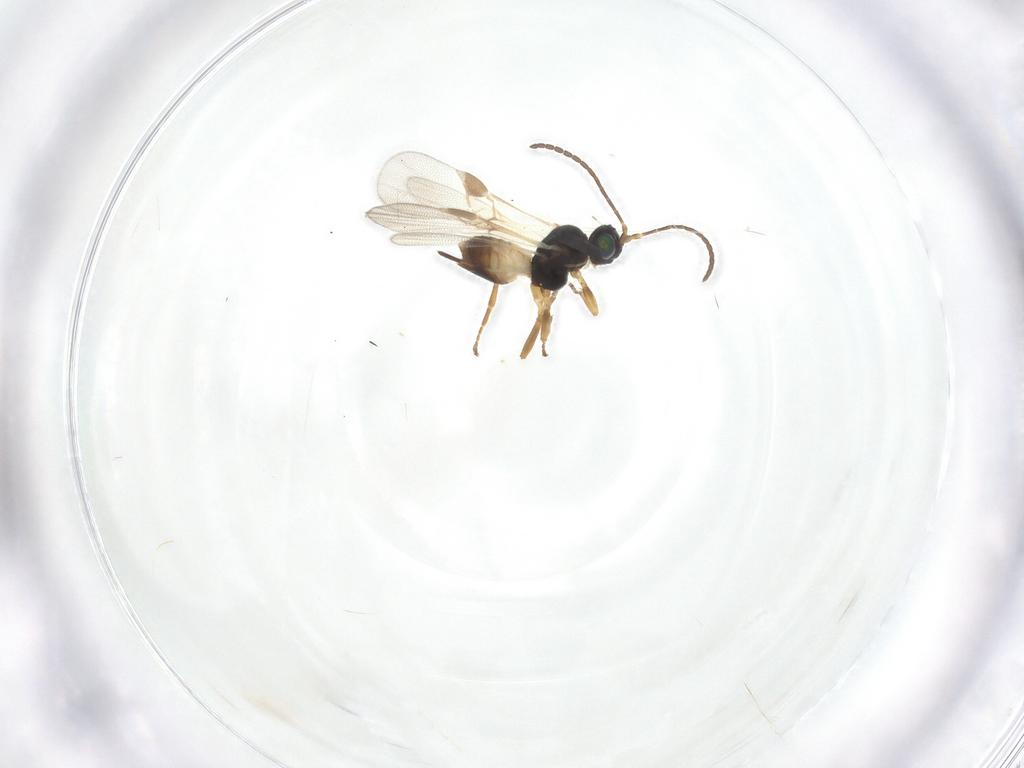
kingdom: Animalia
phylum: Arthropoda
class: Insecta
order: Hymenoptera
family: Braconidae
